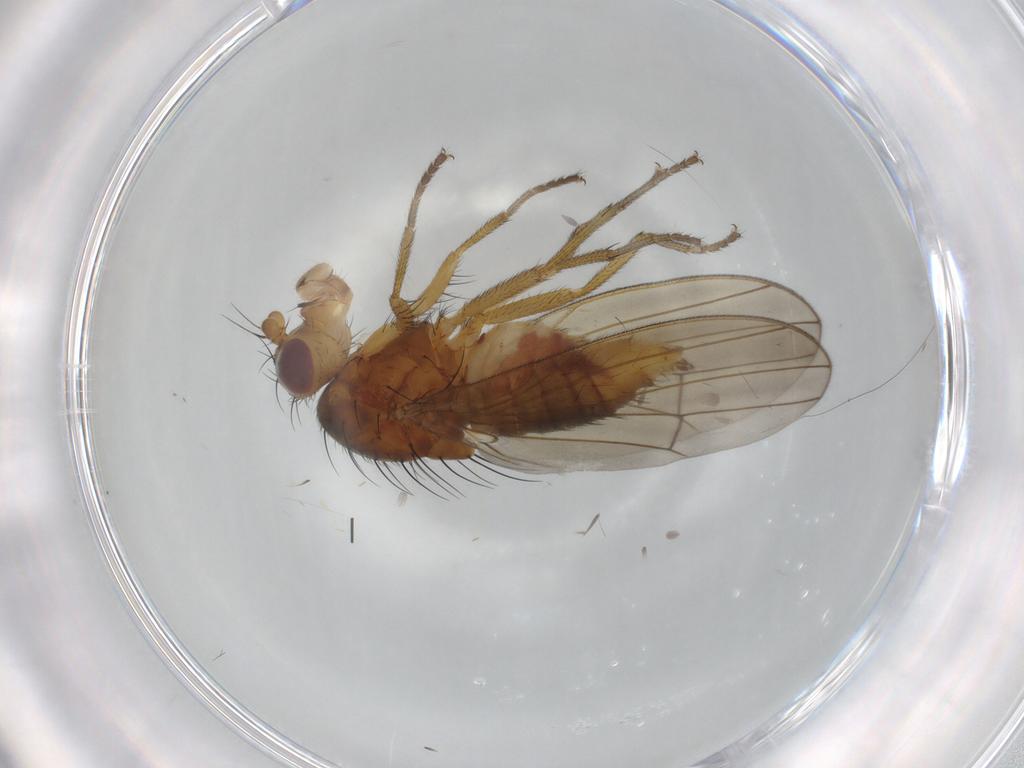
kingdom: Animalia
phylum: Arthropoda
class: Insecta
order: Diptera
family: Lauxaniidae
